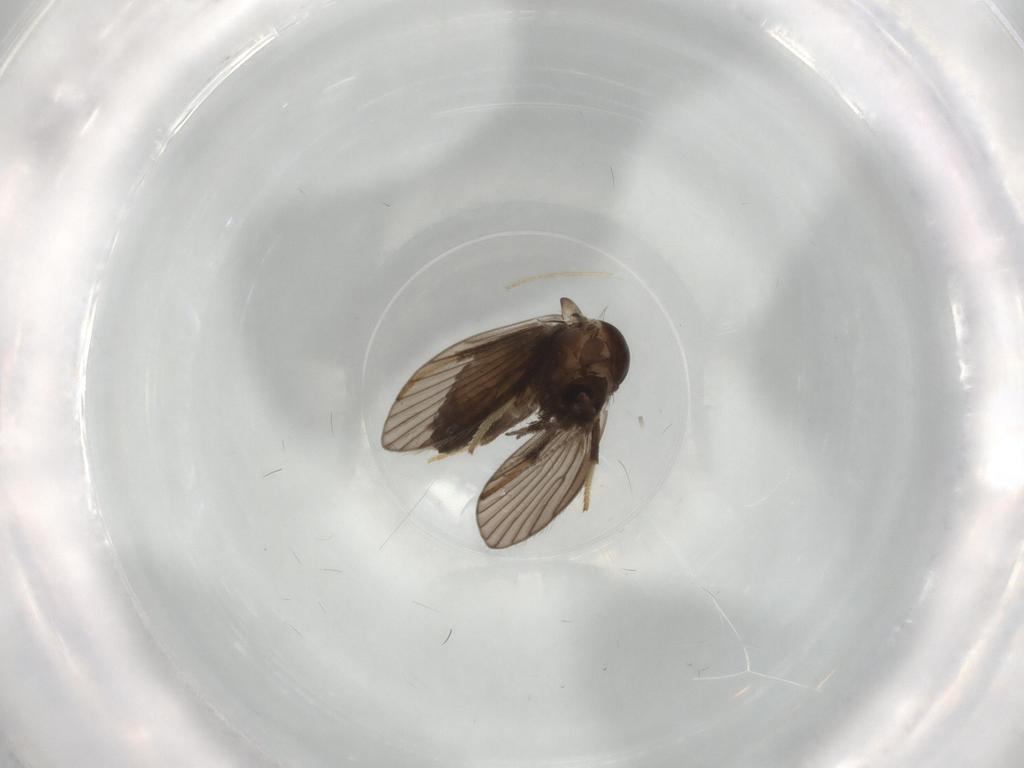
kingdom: Animalia
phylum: Arthropoda
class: Insecta
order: Diptera
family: Psychodidae
